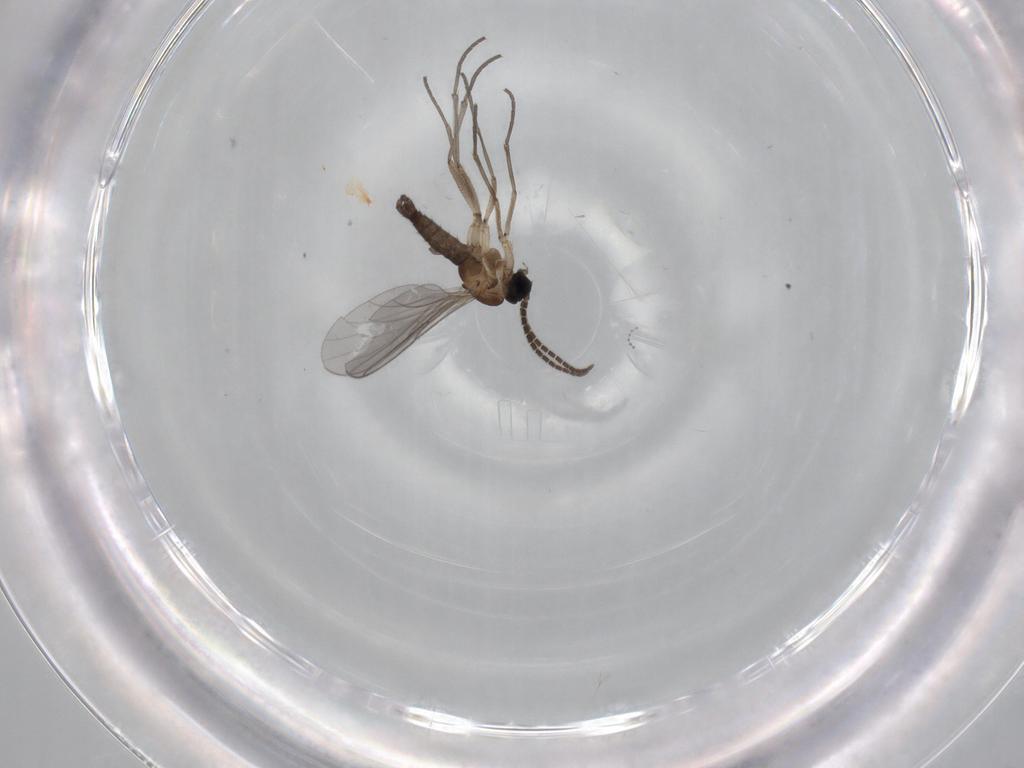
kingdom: Animalia
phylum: Arthropoda
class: Insecta
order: Diptera
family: Sciaridae
